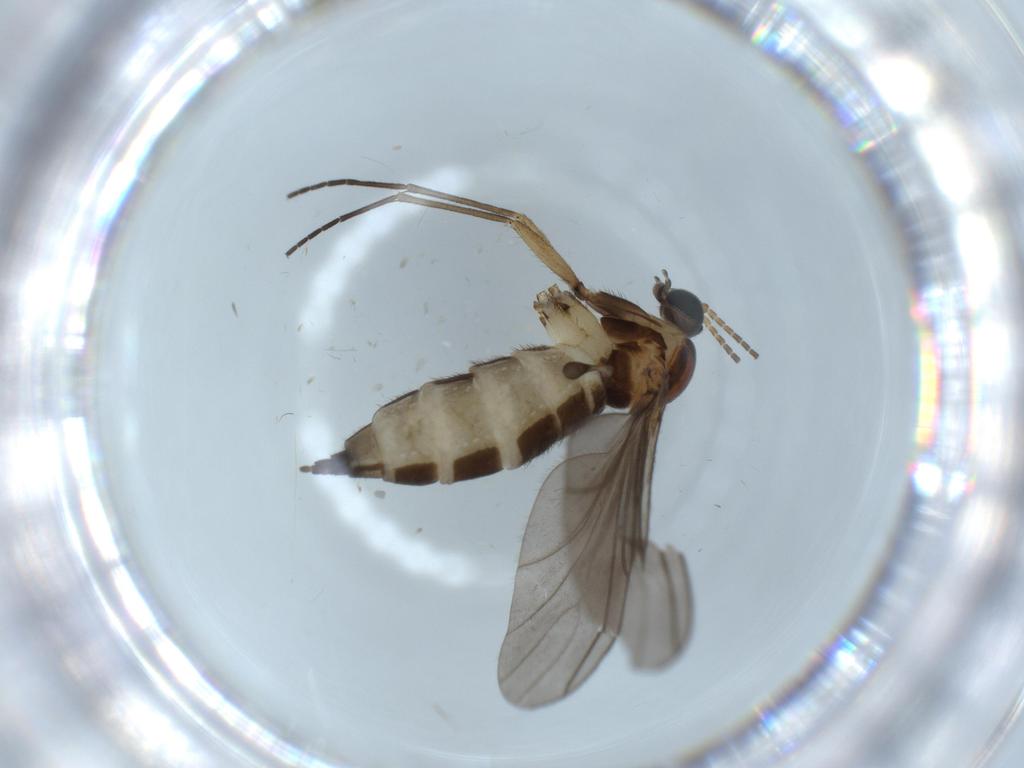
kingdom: Animalia
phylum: Arthropoda
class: Insecta
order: Diptera
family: Sciaridae
